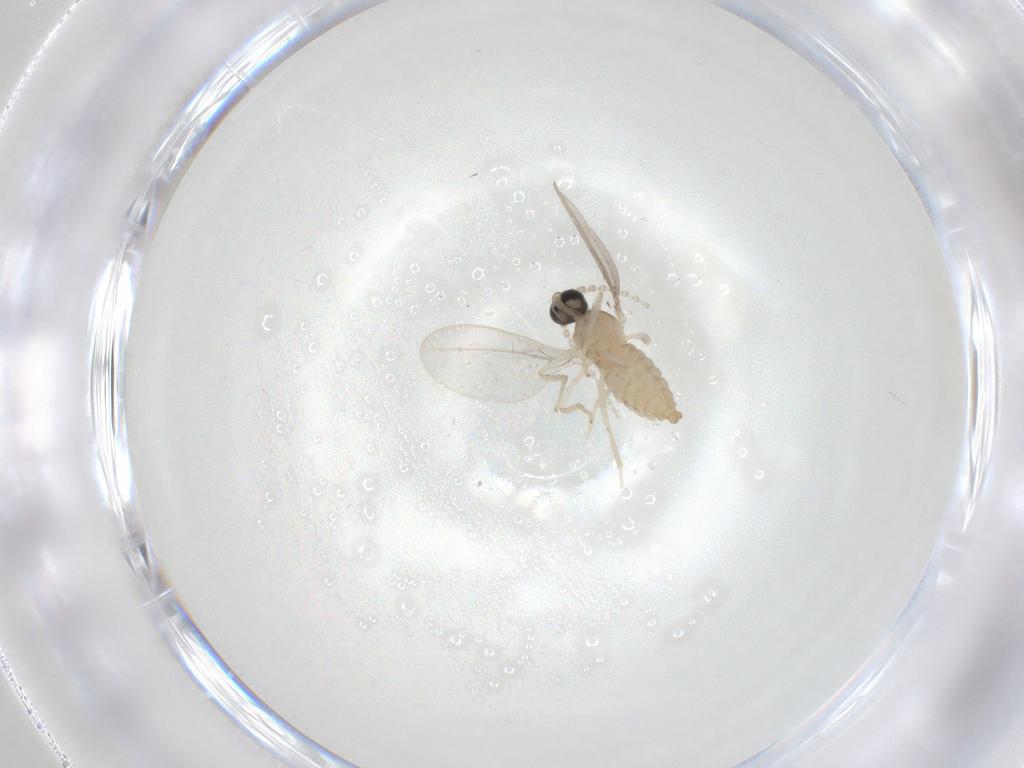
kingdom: Animalia
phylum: Arthropoda
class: Insecta
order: Diptera
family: Cecidomyiidae
